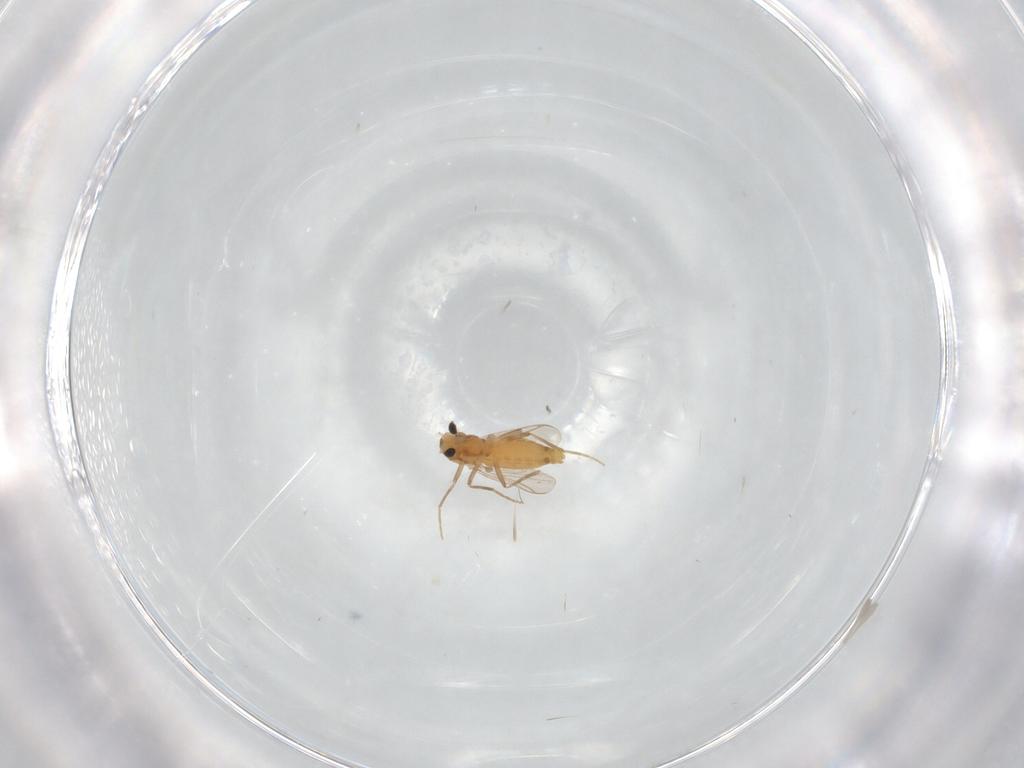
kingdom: Animalia
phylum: Arthropoda
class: Insecta
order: Diptera
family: Chironomidae
